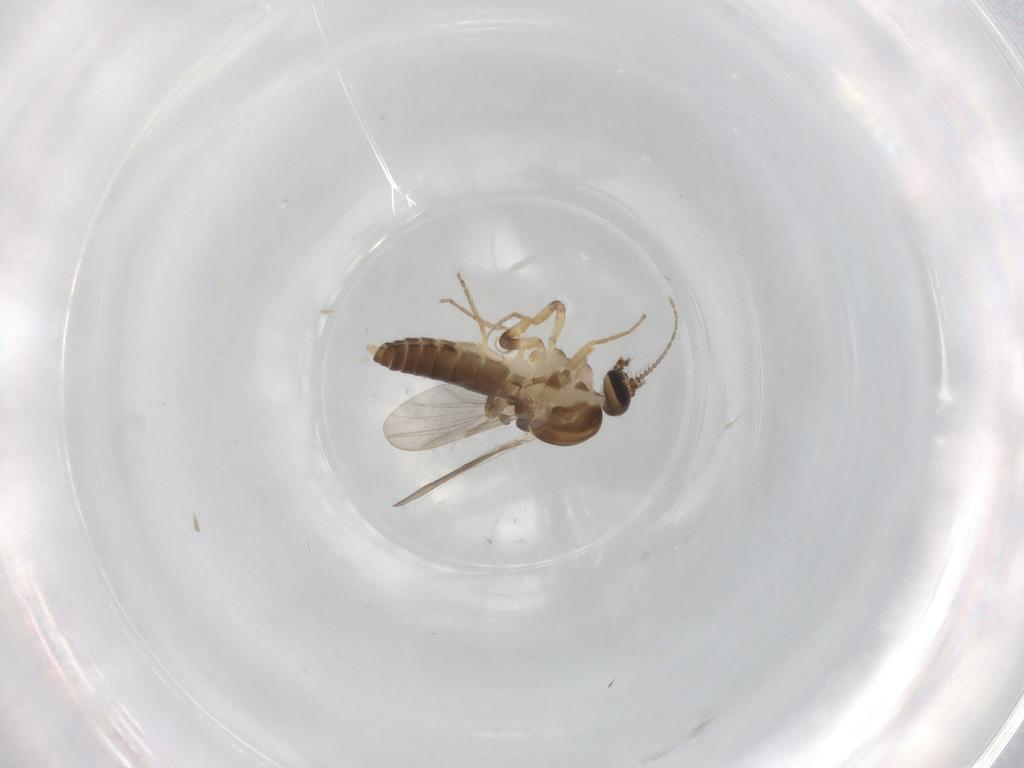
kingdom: Animalia
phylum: Arthropoda
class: Insecta
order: Diptera
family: Ceratopogonidae
